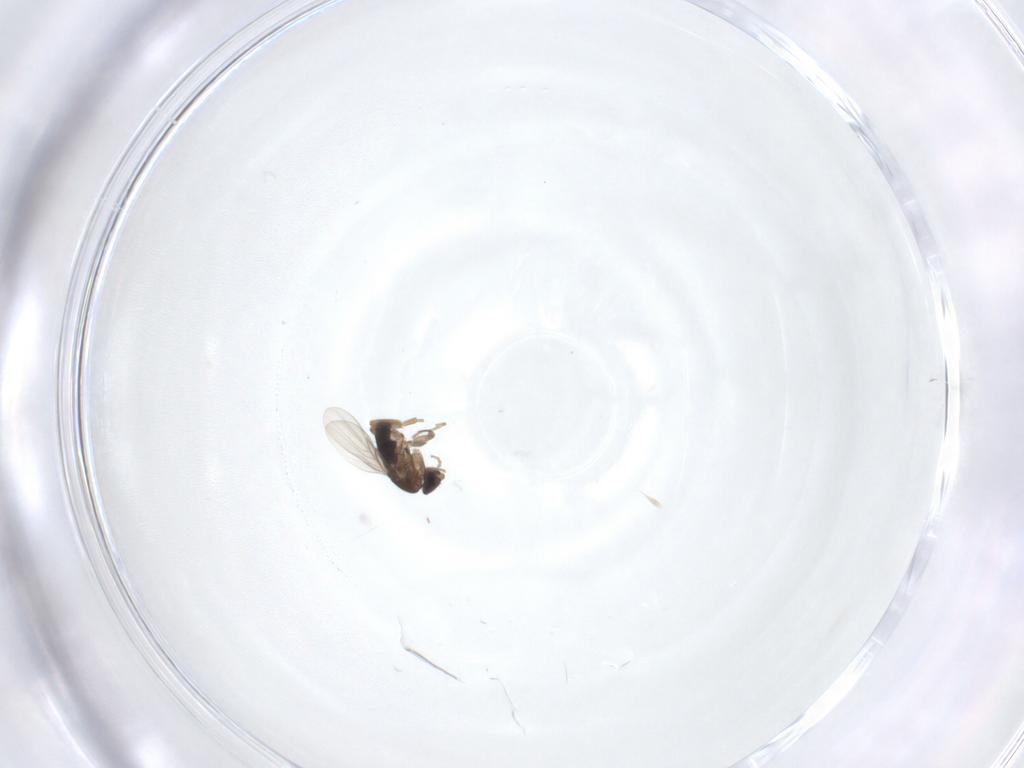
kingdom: Animalia
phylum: Arthropoda
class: Insecta
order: Diptera
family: Phoridae
